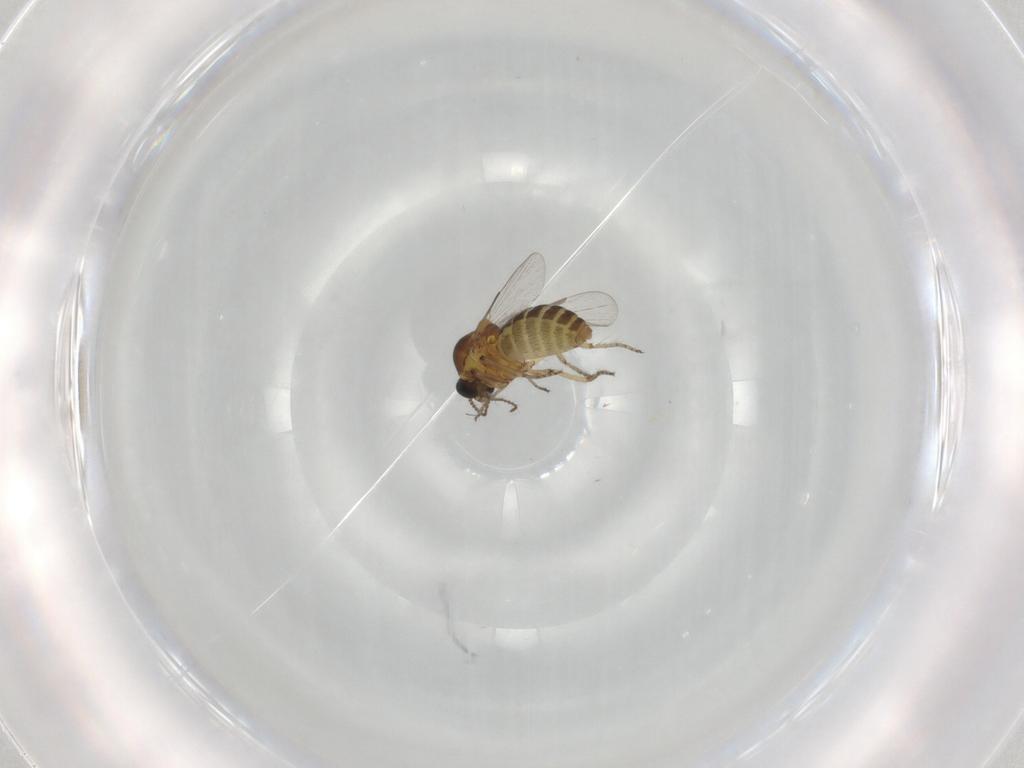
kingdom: Animalia
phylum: Arthropoda
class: Insecta
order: Diptera
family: Ceratopogonidae
